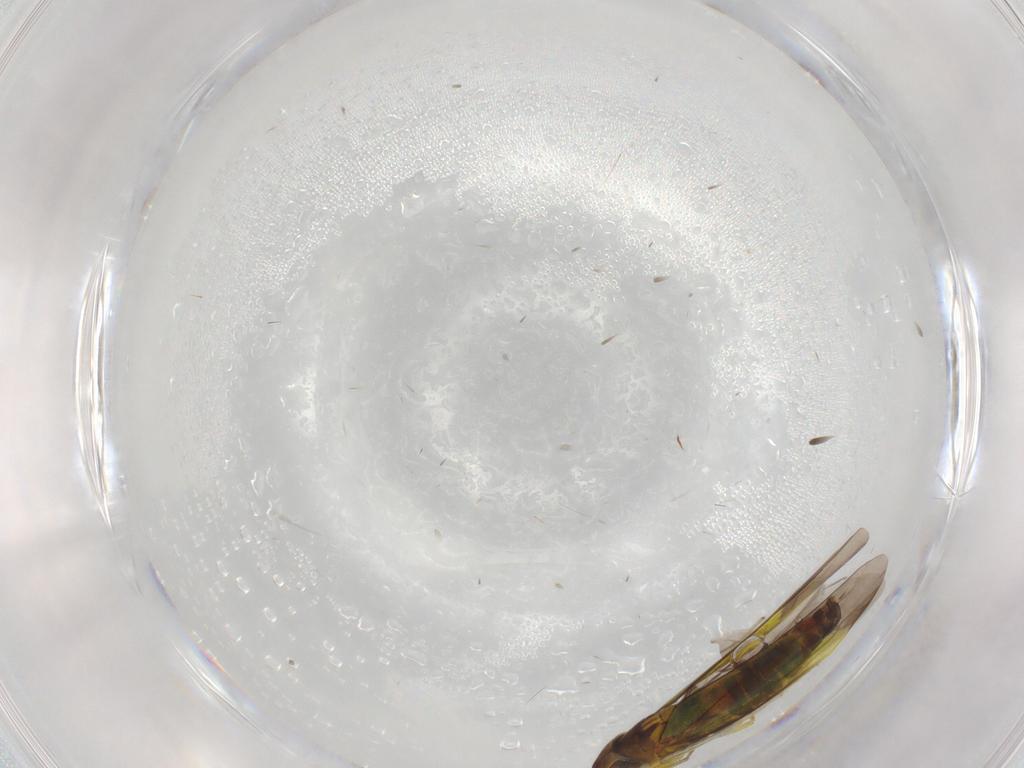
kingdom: Animalia
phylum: Arthropoda
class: Insecta
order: Hemiptera
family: Cicadellidae
